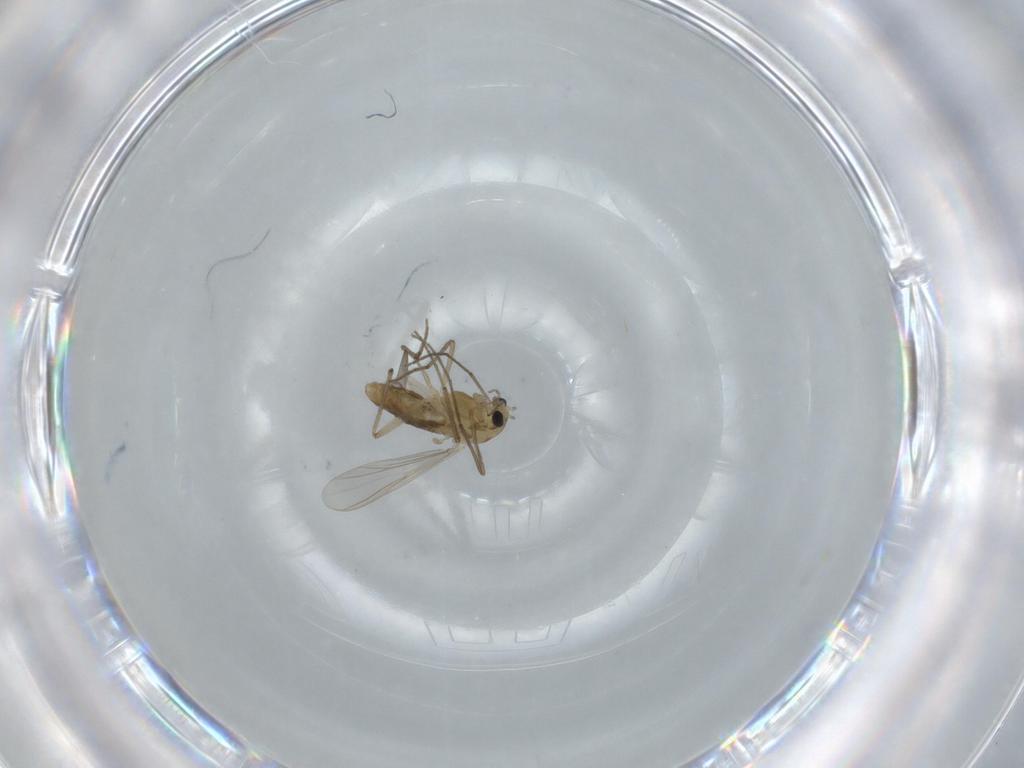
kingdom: Animalia
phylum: Arthropoda
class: Insecta
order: Diptera
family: Chironomidae
